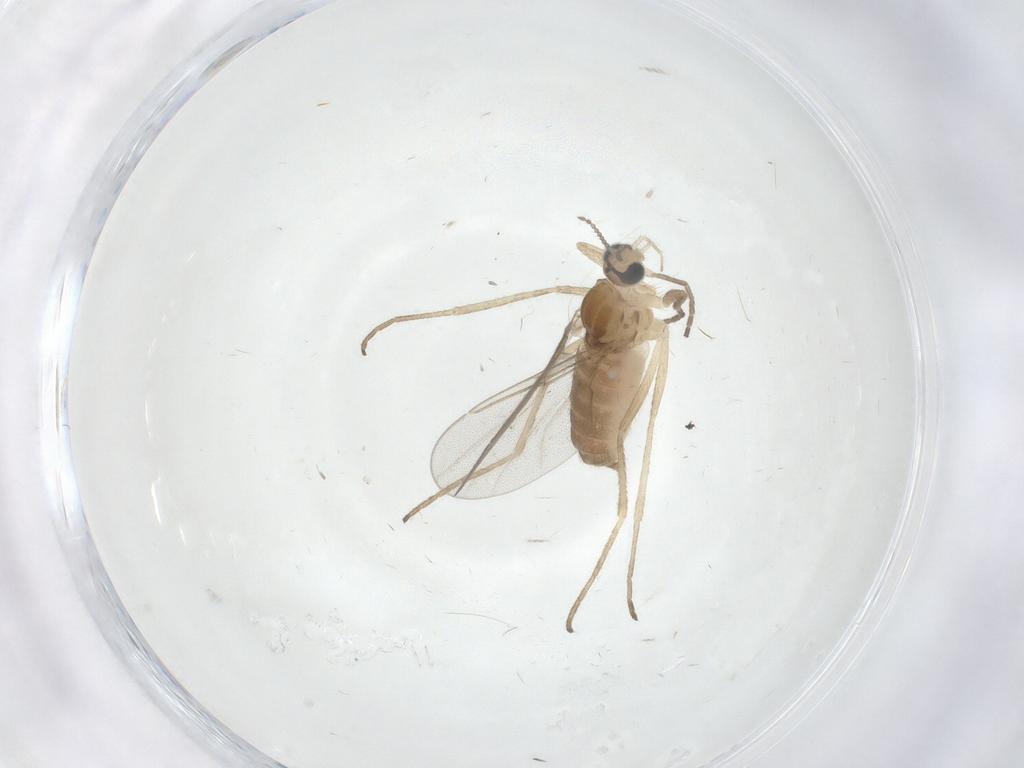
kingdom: Animalia
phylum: Arthropoda
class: Insecta
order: Diptera
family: Cecidomyiidae
